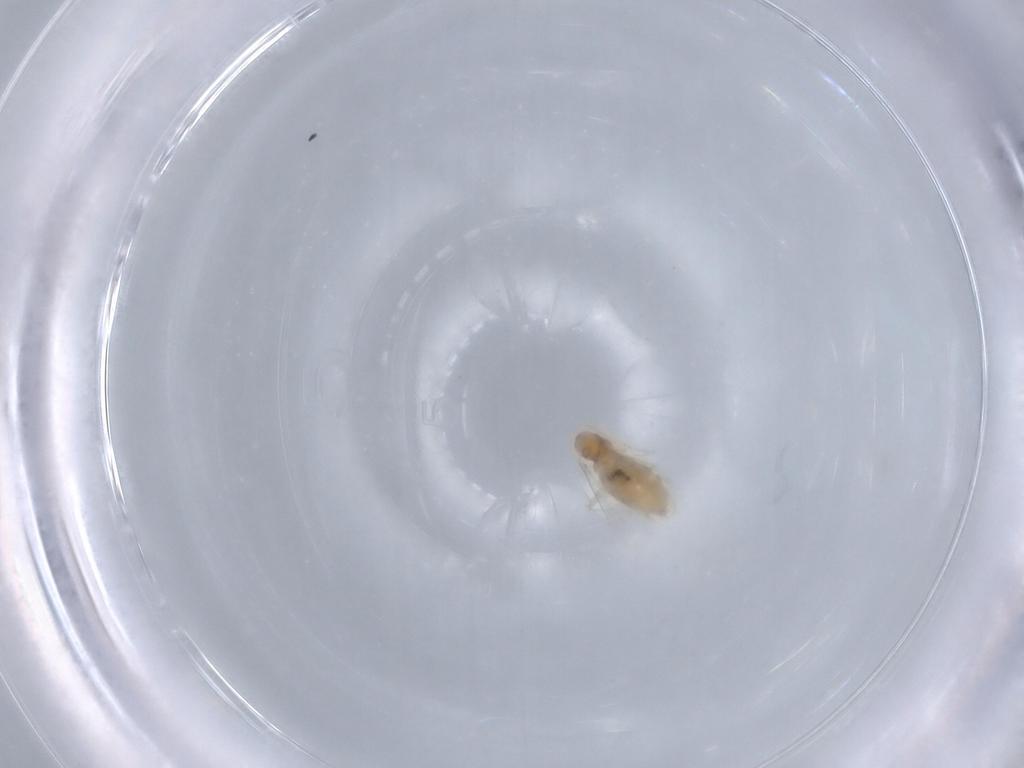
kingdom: Animalia
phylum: Arthropoda
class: Insecta
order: Diptera
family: Cecidomyiidae
